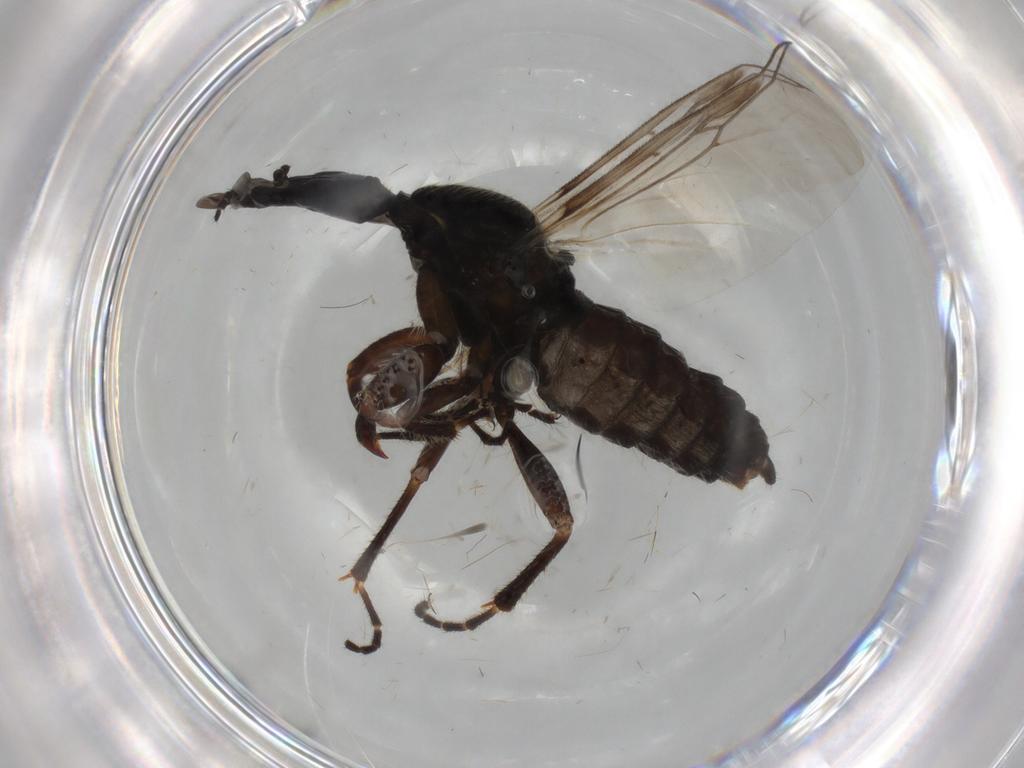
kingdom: Animalia
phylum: Arthropoda
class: Insecta
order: Diptera
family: Bibionidae
